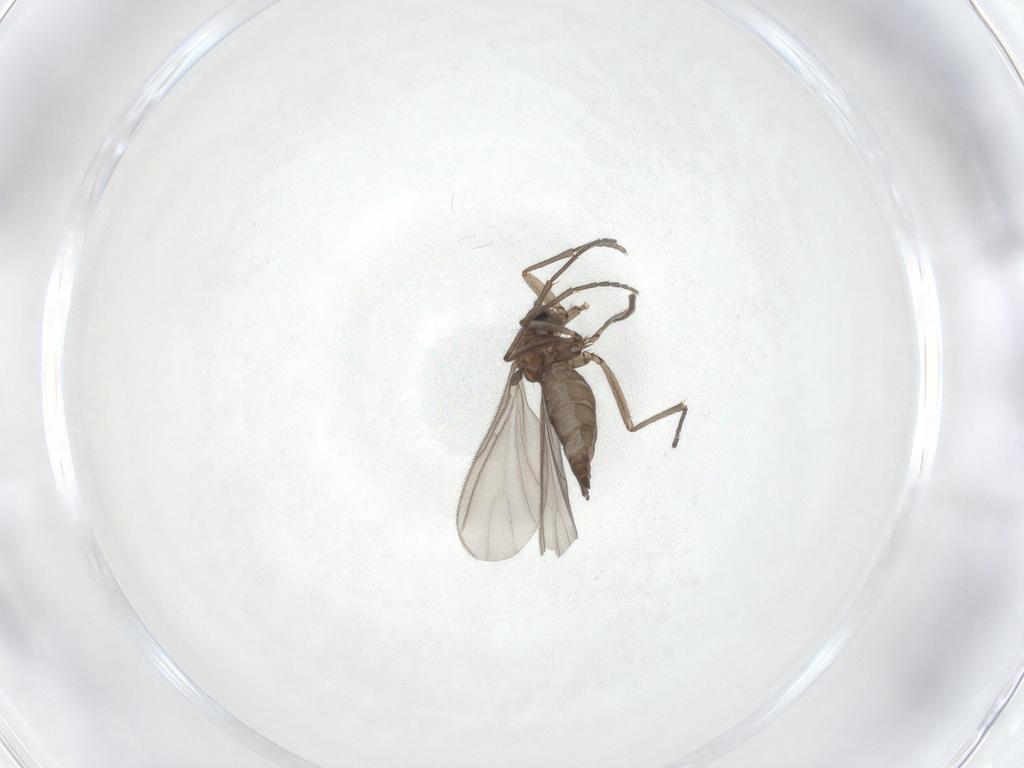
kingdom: Animalia
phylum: Arthropoda
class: Insecta
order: Diptera
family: Sciaridae
